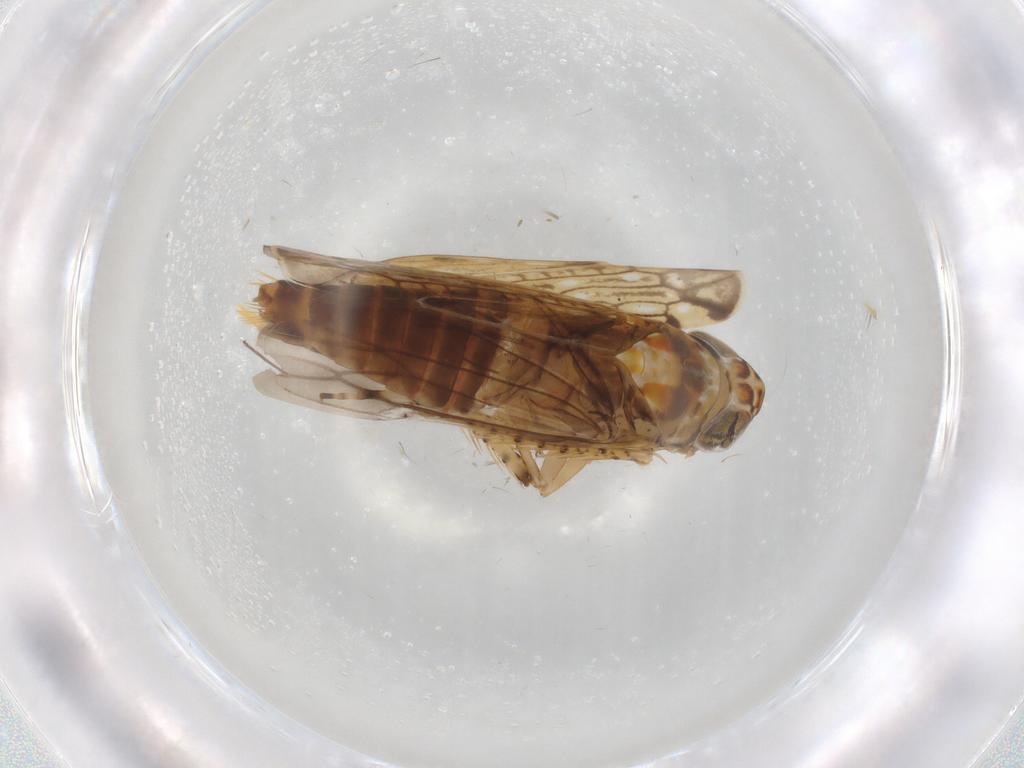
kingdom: Animalia
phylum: Arthropoda
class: Insecta
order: Hemiptera
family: Cicadellidae
